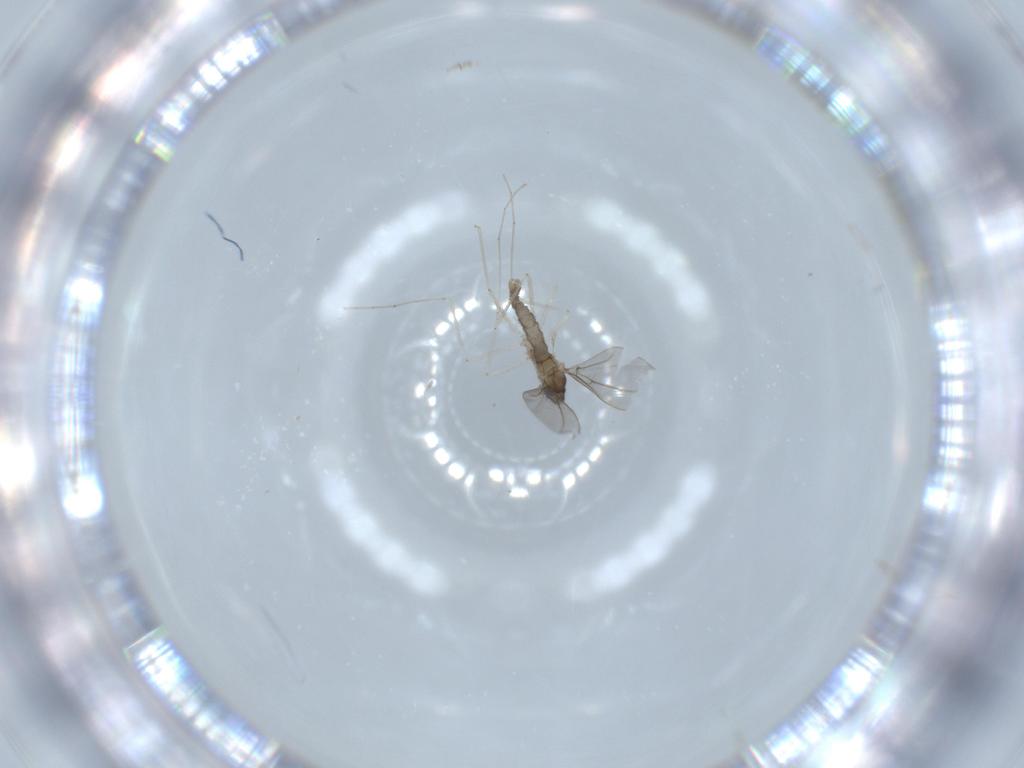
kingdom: Animalia
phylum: Arthropoda
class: Insecta
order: Diptera
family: Cecidomyiidae
